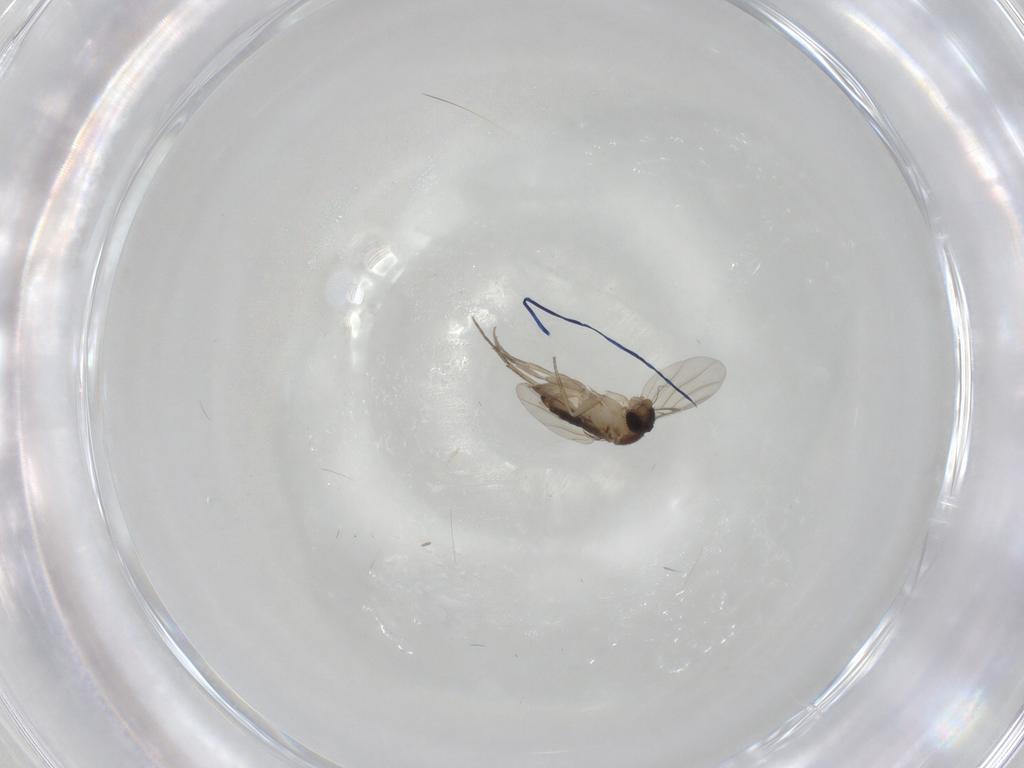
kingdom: Animalia
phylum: Arthropoda
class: Insecta
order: Diptera
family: Phoridae
